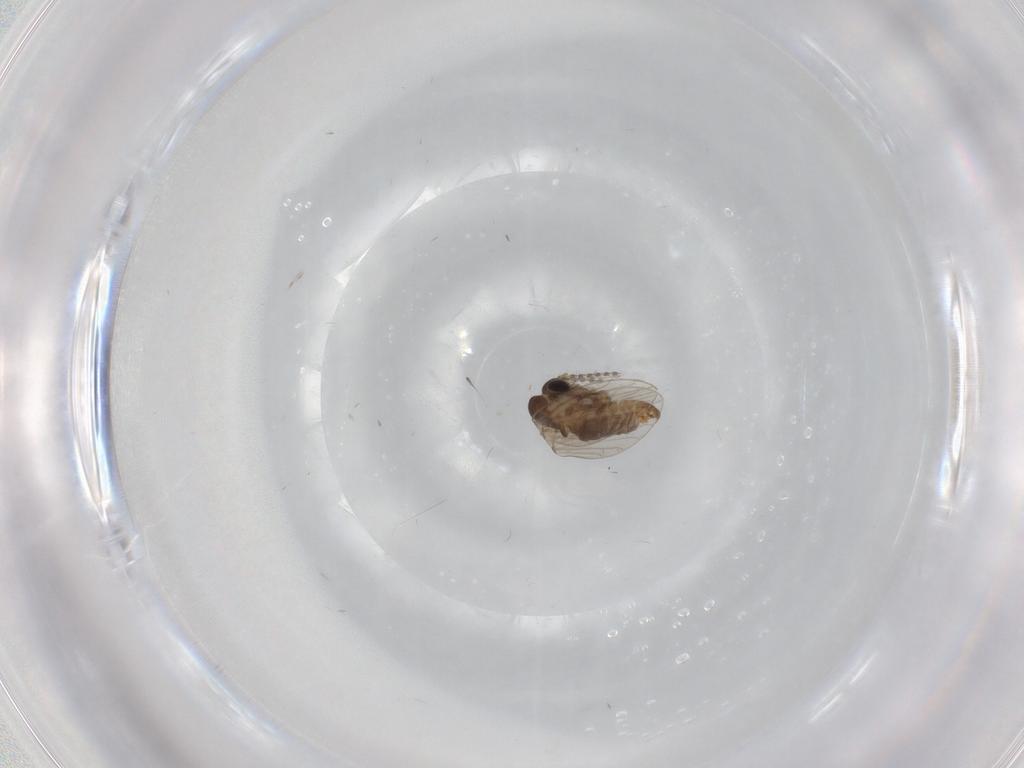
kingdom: Animalia
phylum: Arthropoda
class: Insecta
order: Diptera
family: Psychodidae
